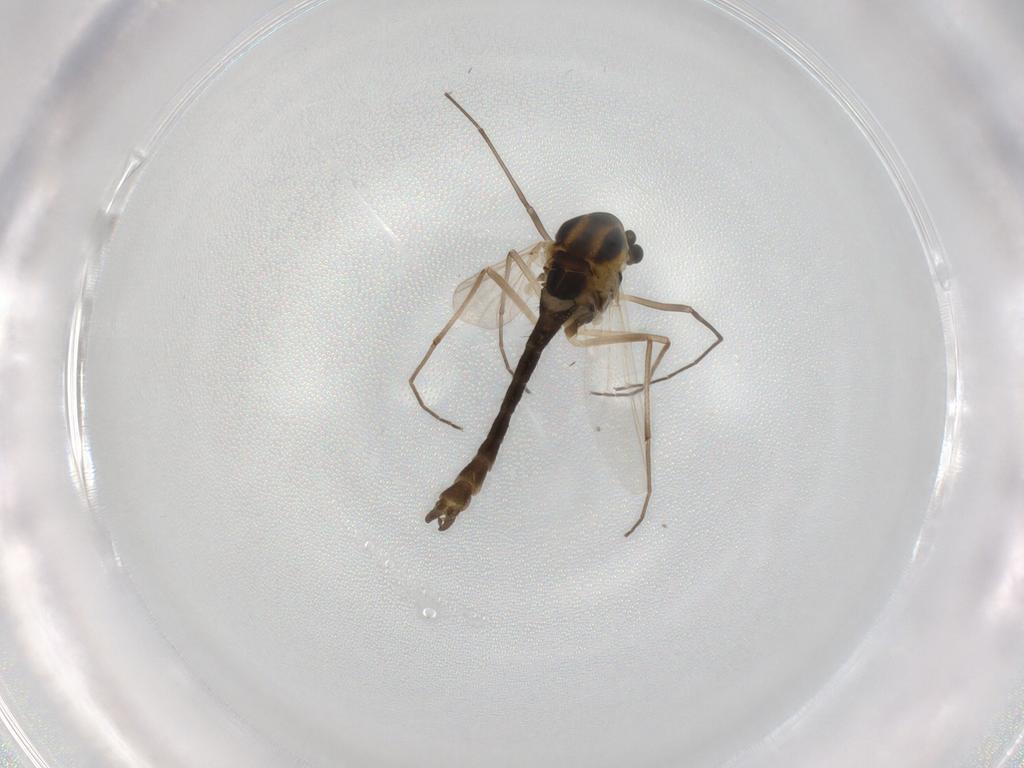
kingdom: Animalia
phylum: Arthropoda
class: Insecta
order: Diptera
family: Chironomidae
